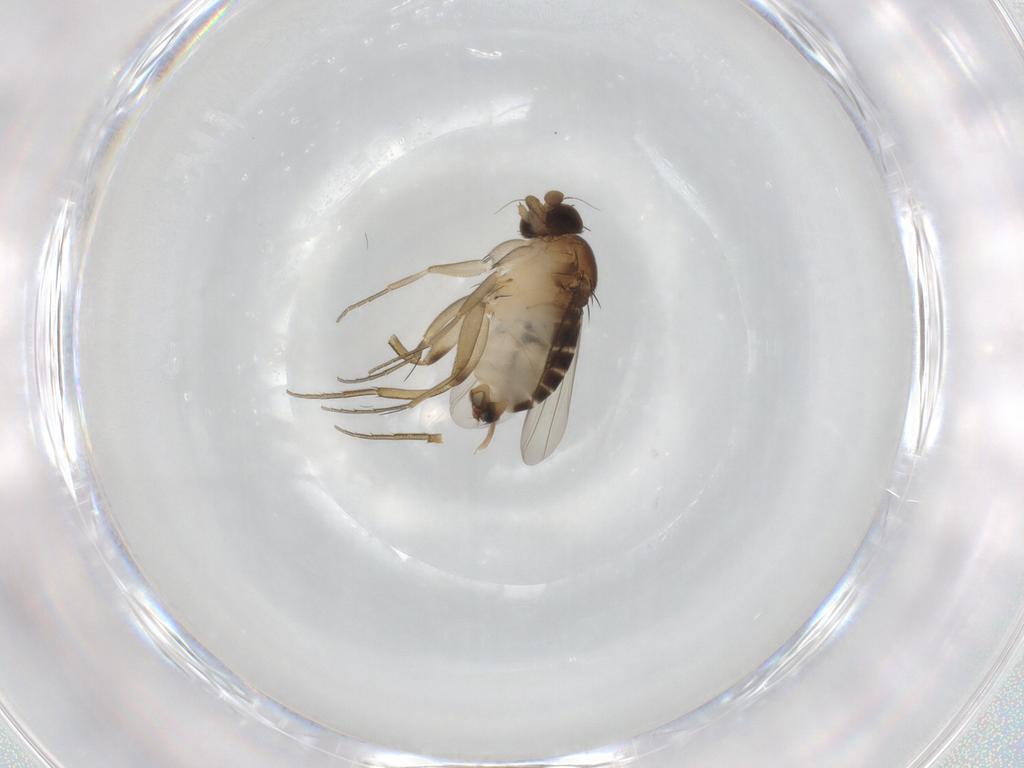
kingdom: Animalia
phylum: Arthropoda
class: Insecta
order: Diptera
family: Phoridae
